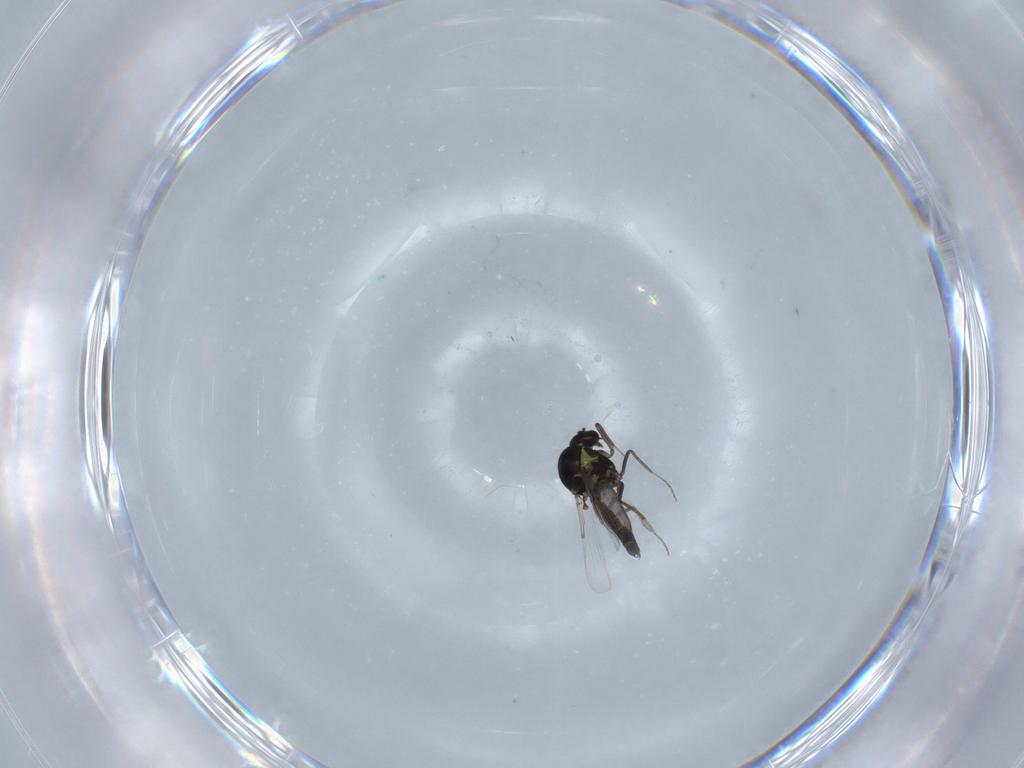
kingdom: Animalia
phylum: Arthropoda
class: Insecta
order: Diptera
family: Ceratopogonidae
